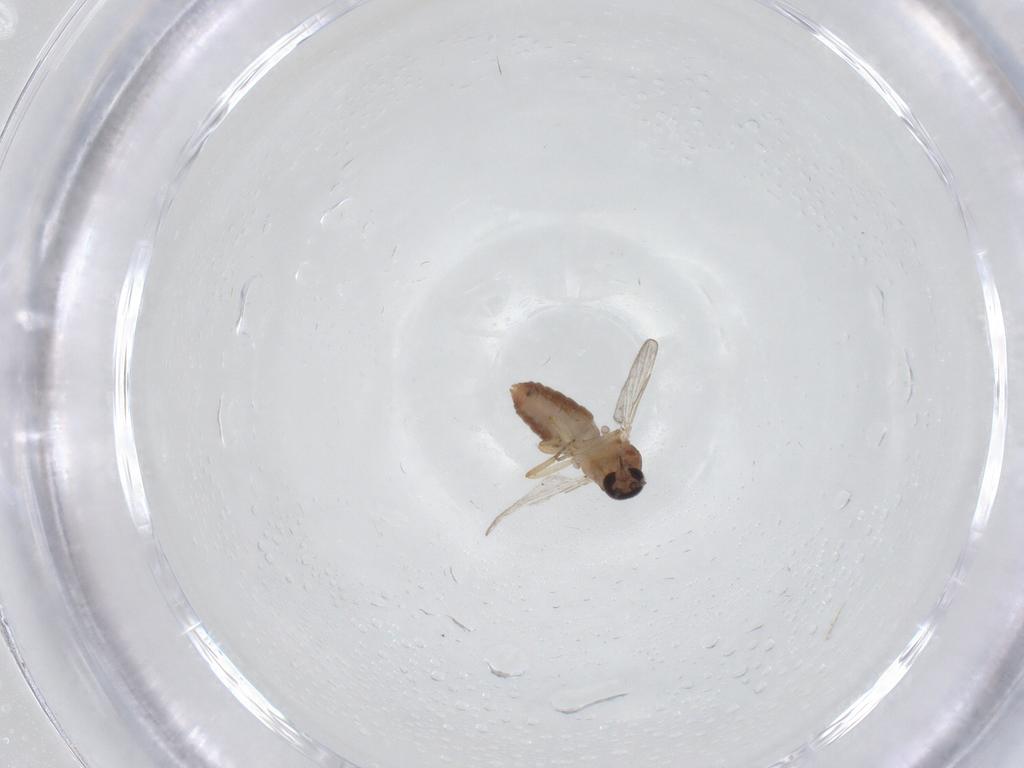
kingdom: Animalia
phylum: Arthropoda
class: Insecta
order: Diptera
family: Ceratopogonidae
